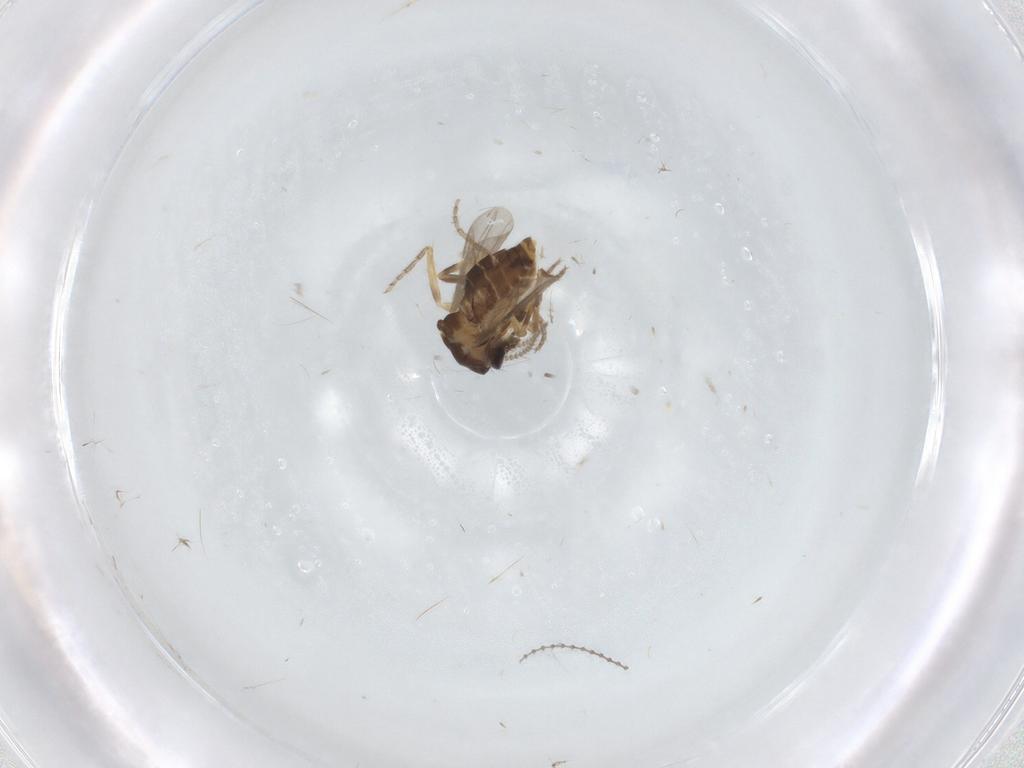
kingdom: Animalia
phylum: Arthropoda
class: Insecta
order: Diptera
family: Ceratopogonidae
